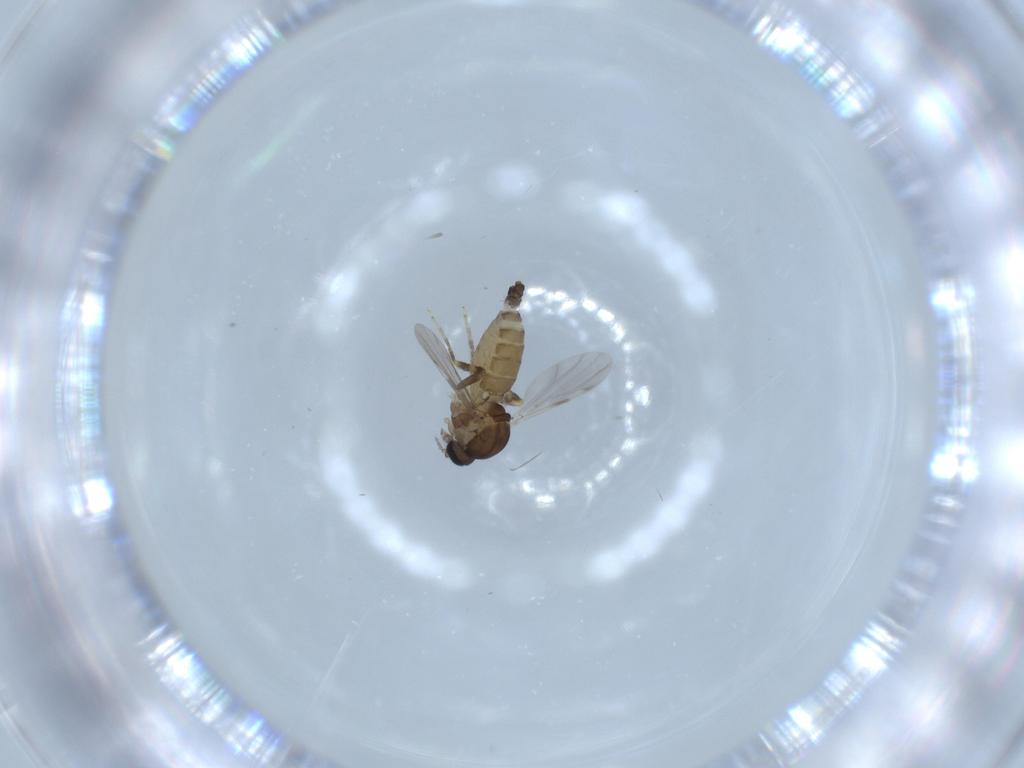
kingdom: Animalia
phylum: Arthropoda
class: Insecta
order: Diptera
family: Ceratopogonidae
